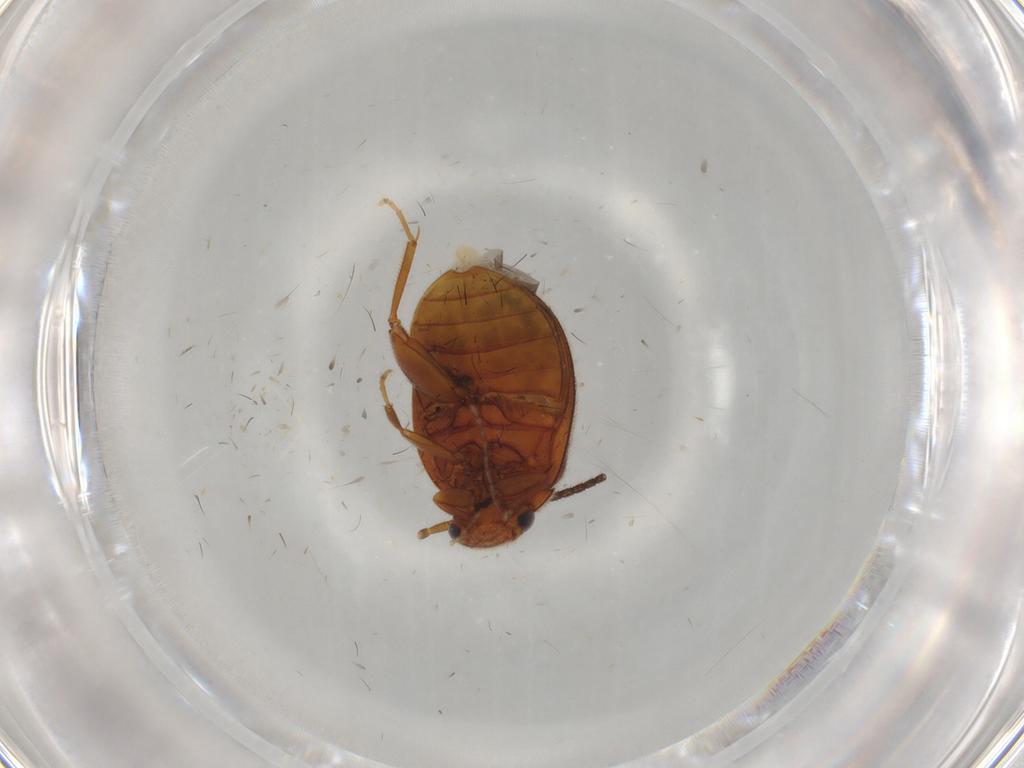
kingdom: Animalia
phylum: Arthropoda
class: Insecta
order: Coleoptera
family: Scirtidae
